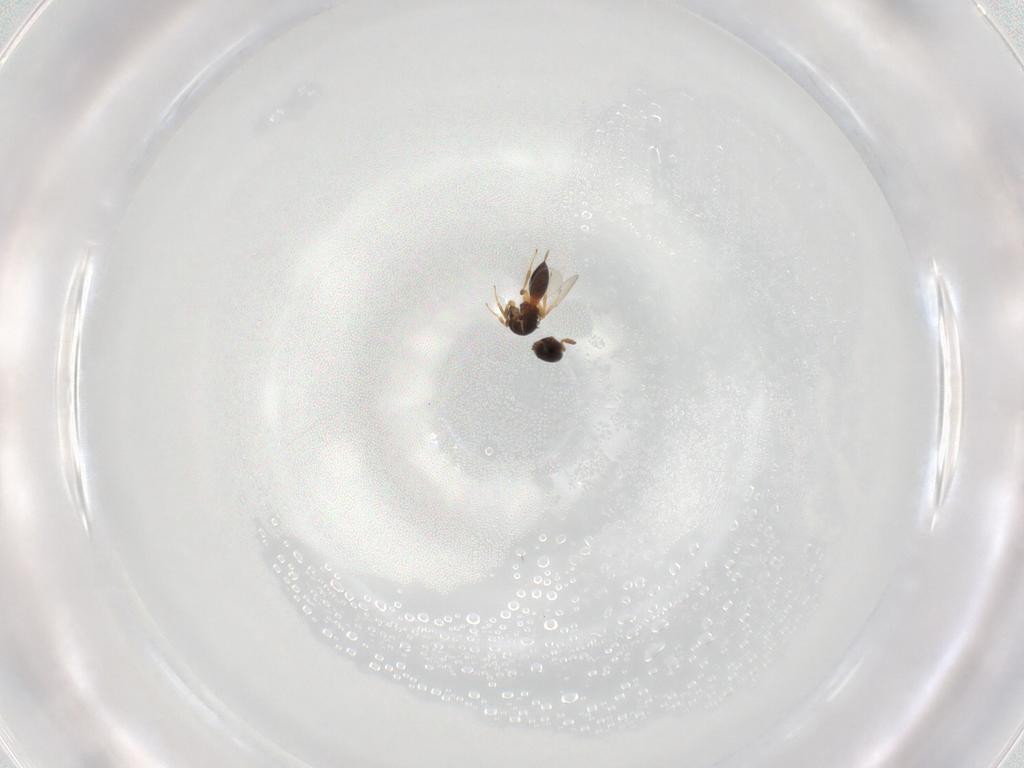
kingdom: Animalia
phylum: Arthropoda
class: Insecta
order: Hymenoptera
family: Platygastridae
